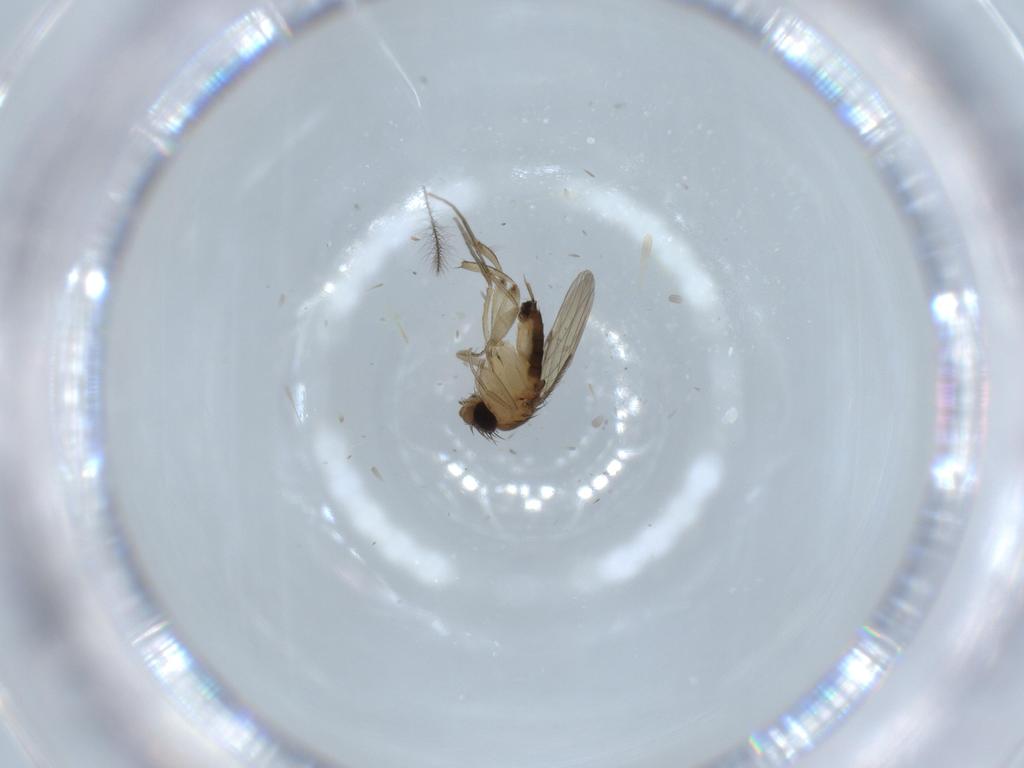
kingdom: Animalia
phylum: Arthropoda
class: Insecta
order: Diptera
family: Phoridae
